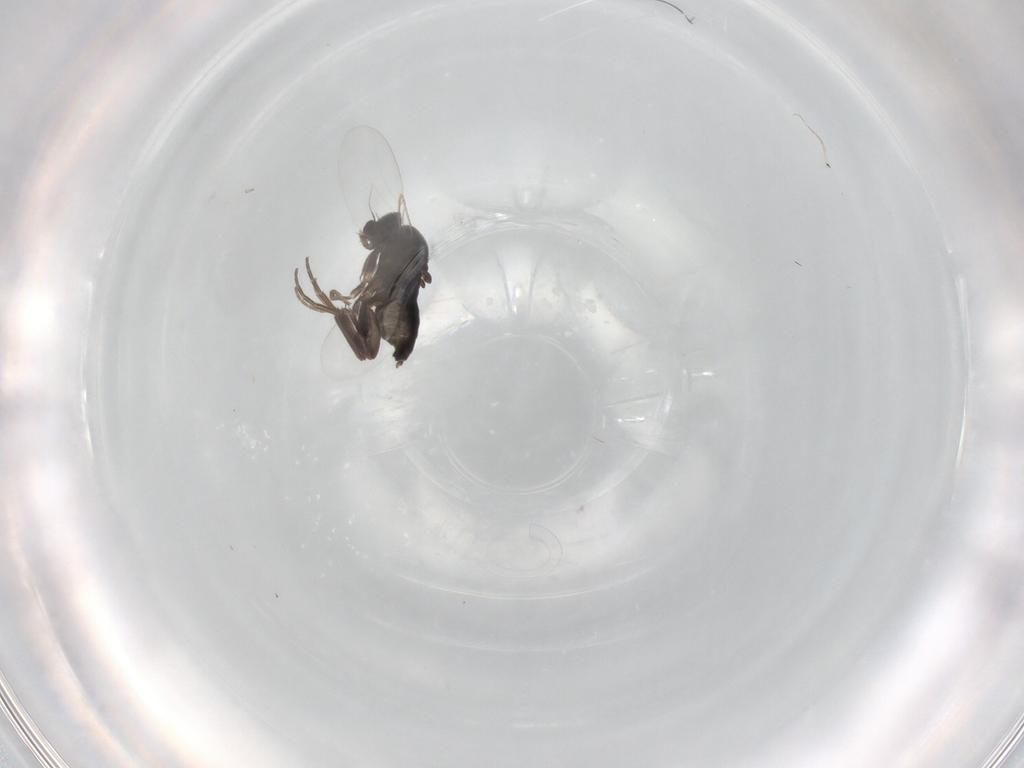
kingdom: Animalia
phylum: Arthropoda
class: Insecta
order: Diptera
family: Phoridae
